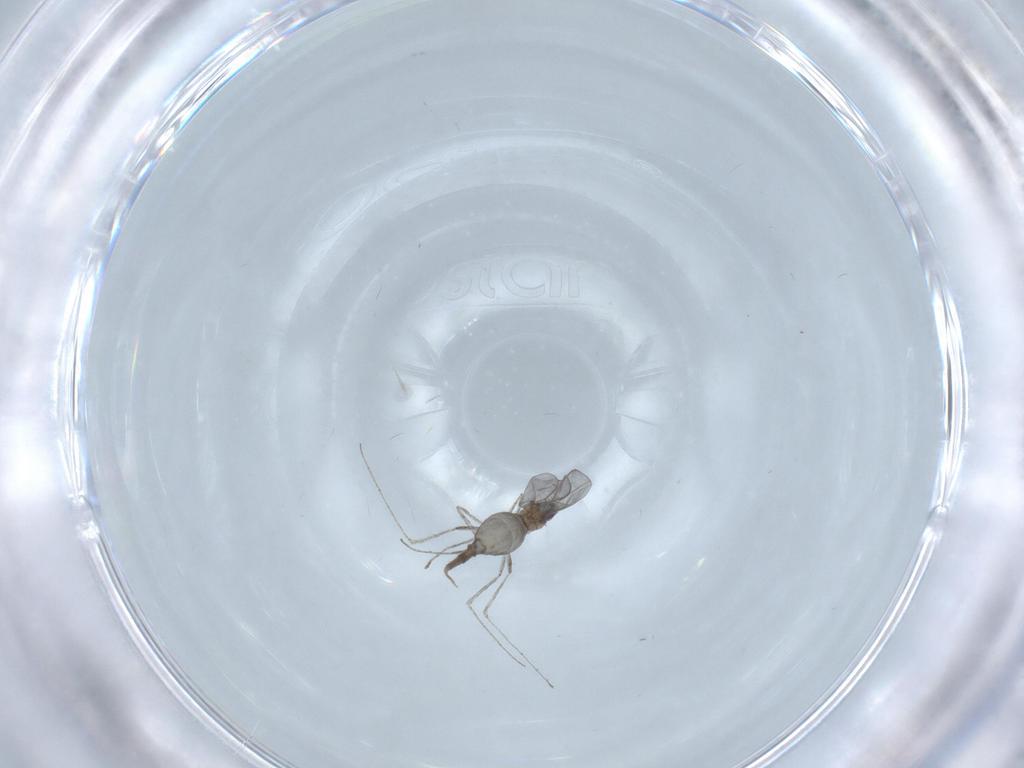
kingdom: Animalia
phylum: Arthropoda
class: Insecta
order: Diptera
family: Cecidomyiidae
